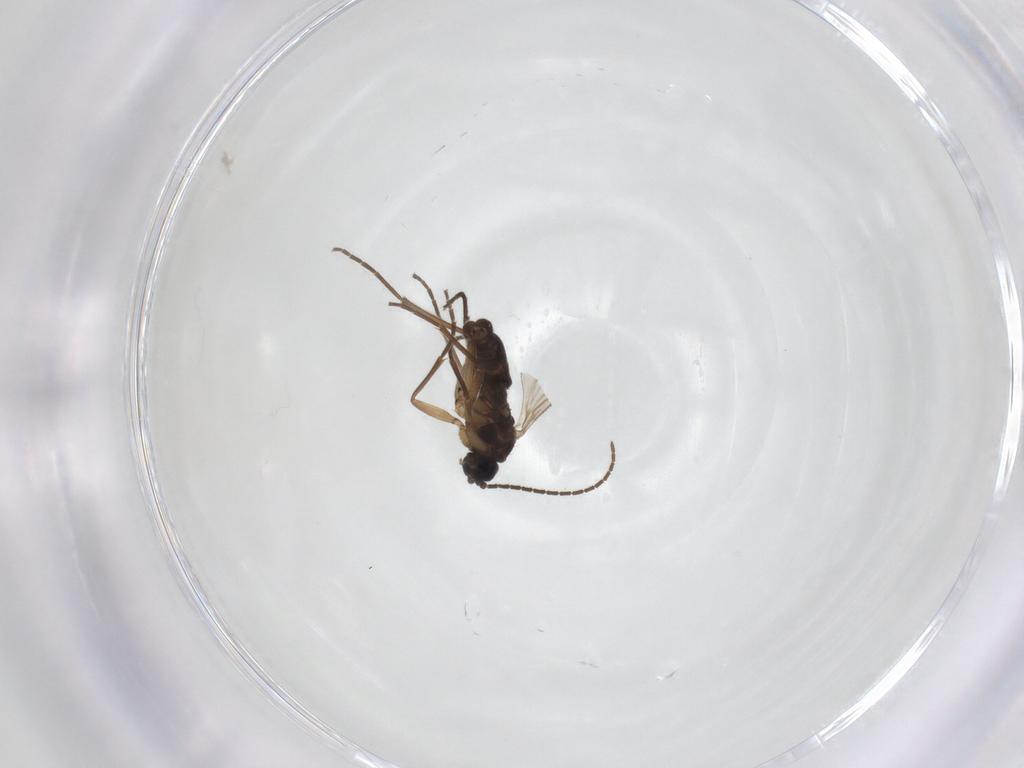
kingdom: Animalia
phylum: Arthropoda
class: Insecta
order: Diptera
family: Sciaridae
